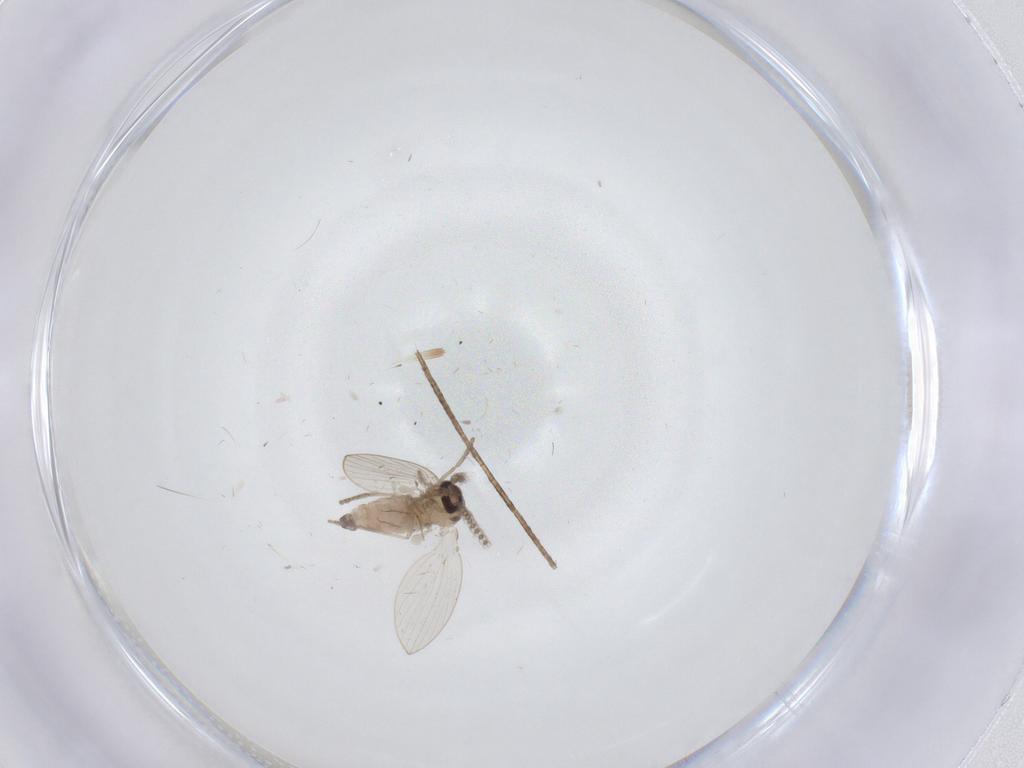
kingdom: Animalia
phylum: Arthropoda
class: Insecta
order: Diptera
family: Psychodidae
